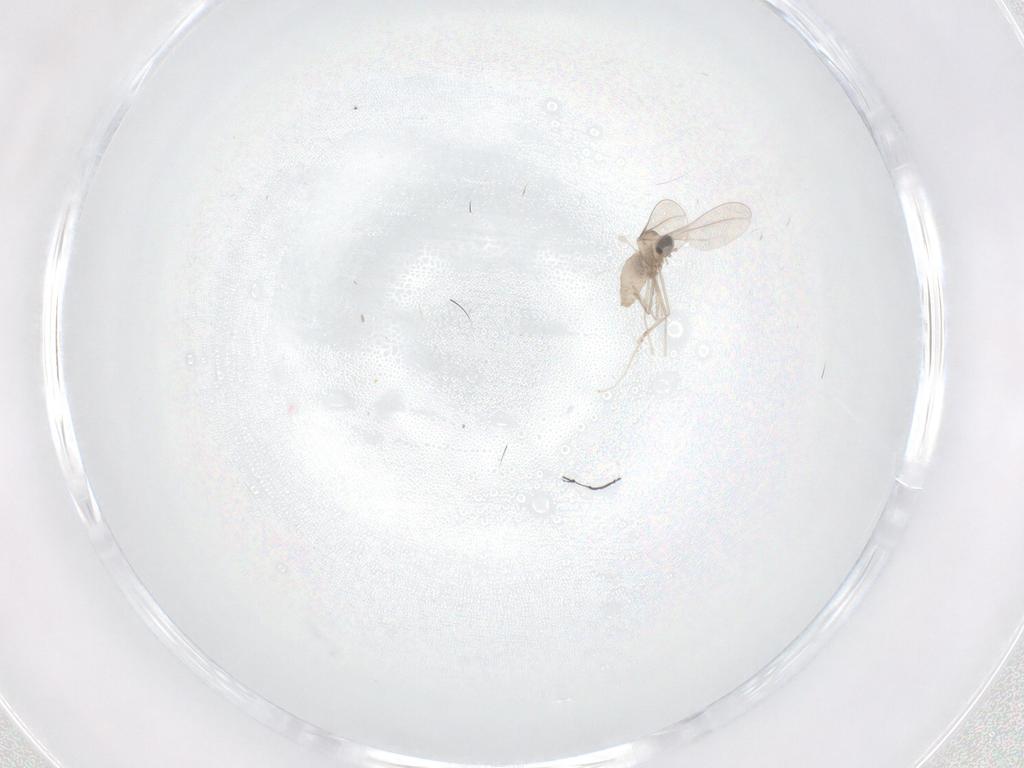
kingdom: Animalia
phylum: Arthropoda
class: Insecta
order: Diptera
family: Cecidomyiidae
